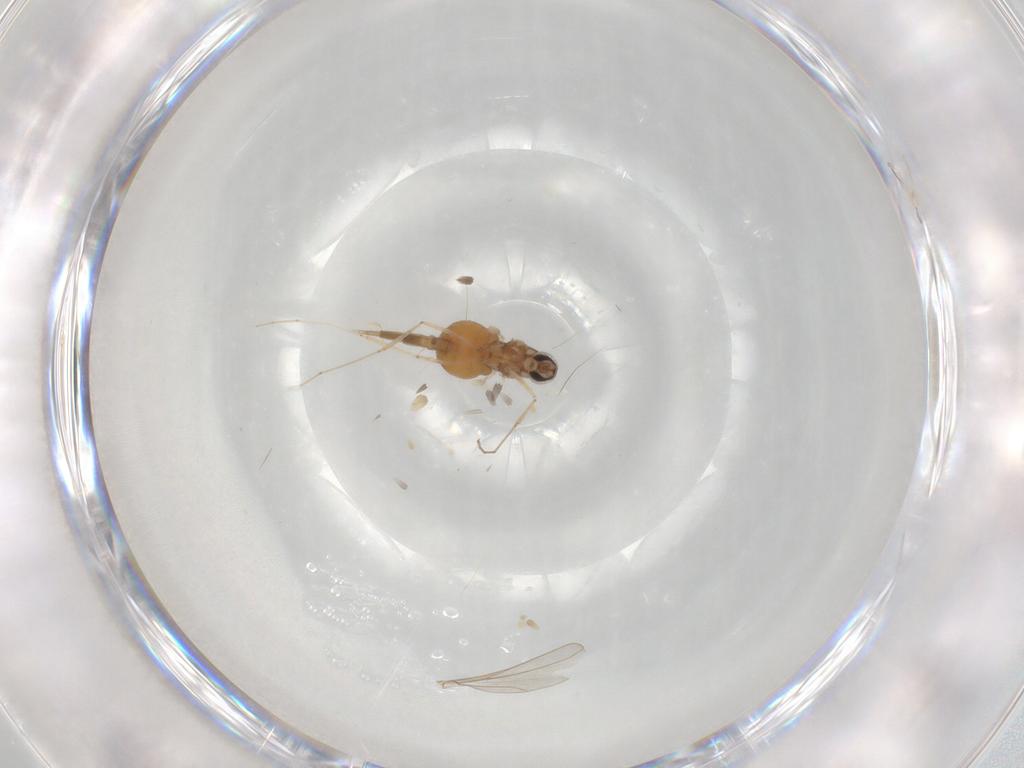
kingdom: Animalia
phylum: Arthropoda
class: Insecta
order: Diptera
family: Cecidomyiidae
